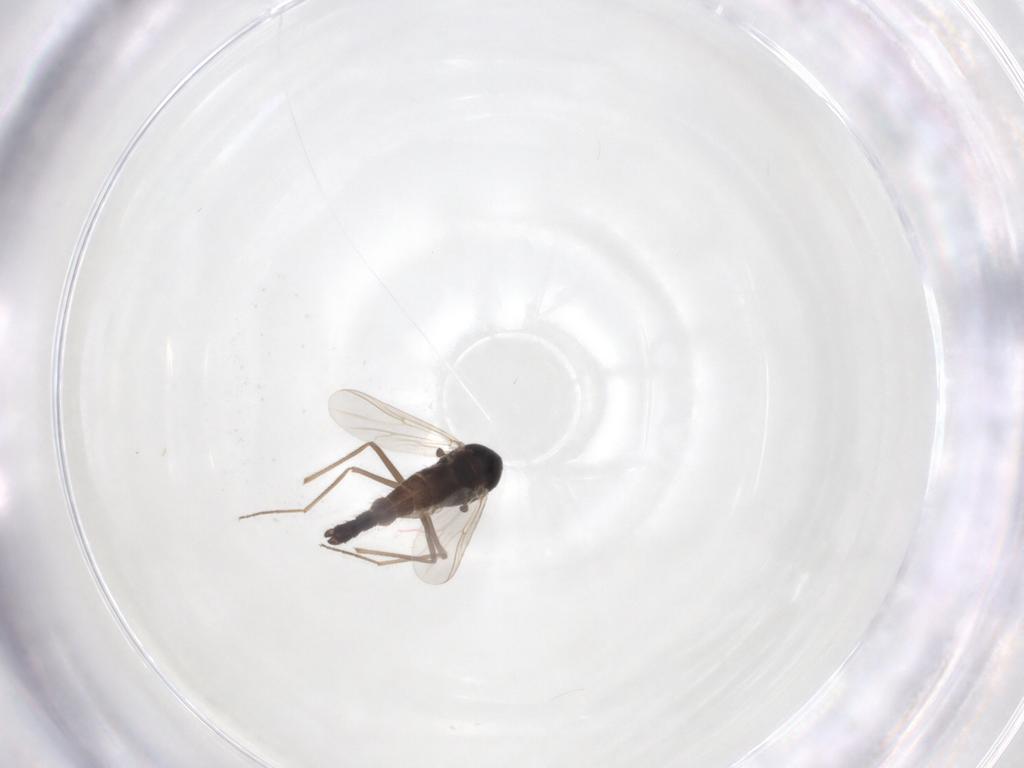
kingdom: Animalia
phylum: Arthropoda
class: Insecta
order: Diptera
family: Chironomidae
